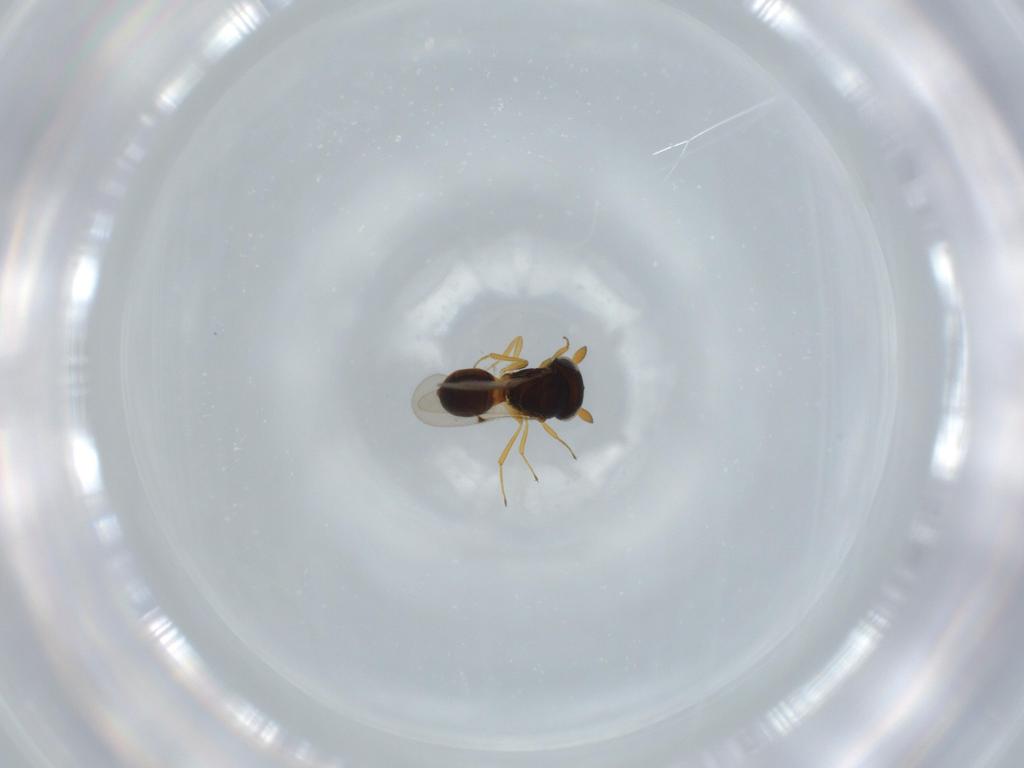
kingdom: Animalia
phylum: Arthropoda
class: Insecta
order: Hymenoptera
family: Scelionidae
